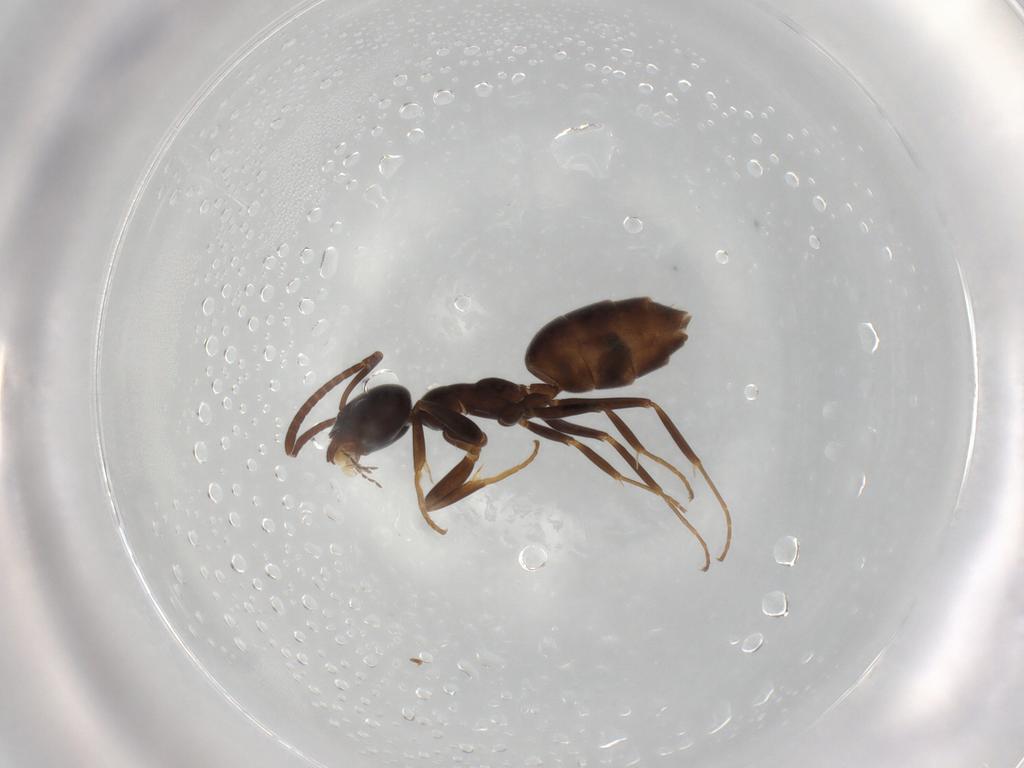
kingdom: Animalia
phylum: Arthropoda
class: Insecta
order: Hymenoptera
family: Formicidae
